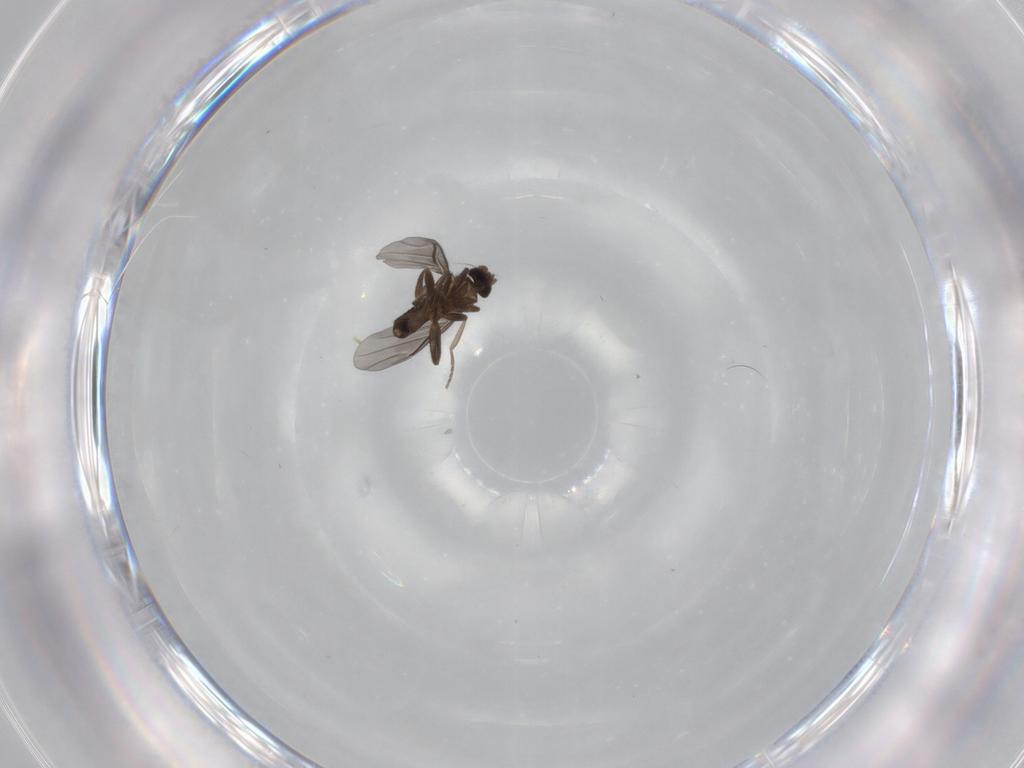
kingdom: Animalia
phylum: Arthropoda
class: Insecta
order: Diptera
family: Phoridae
